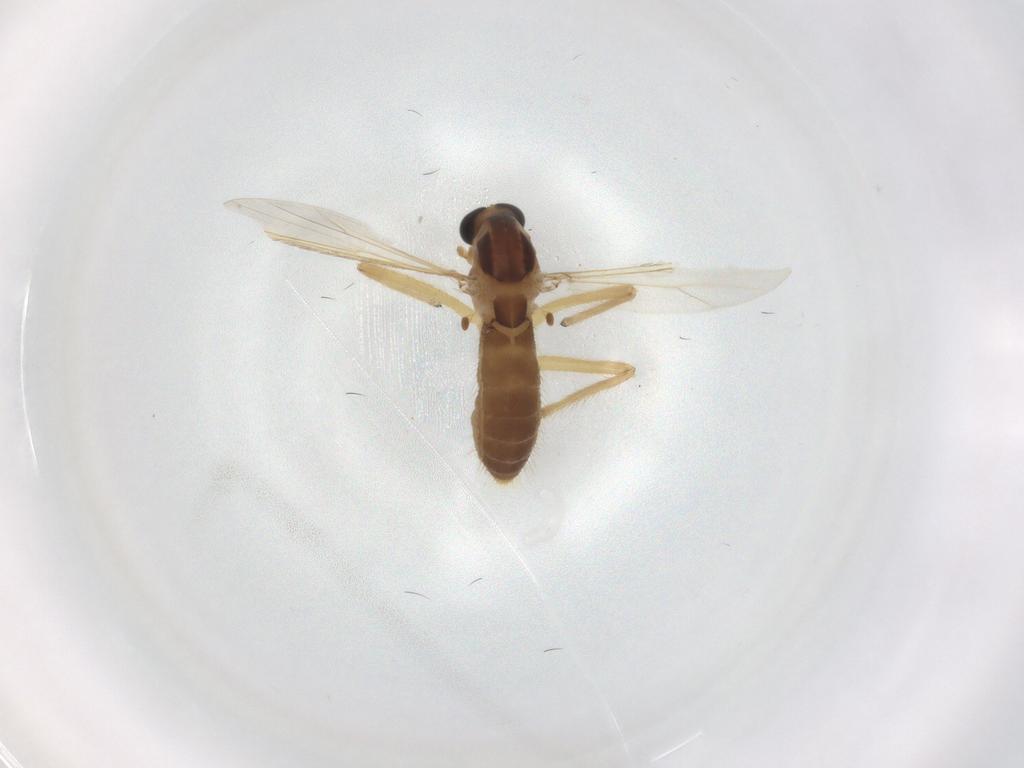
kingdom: Animalia
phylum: Arthropoda
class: Insecta
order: Diptera
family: Chironomidae
